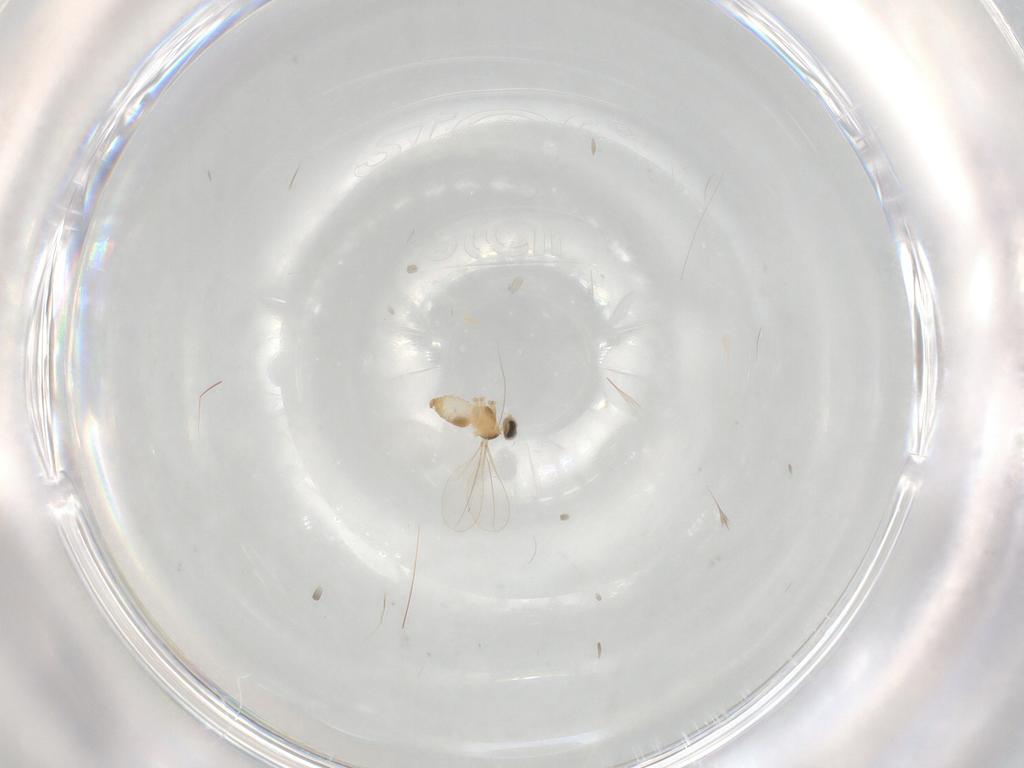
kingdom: Animalia
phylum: Arthropoda
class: Insecta
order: Diptera
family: Cecidomyiidae
